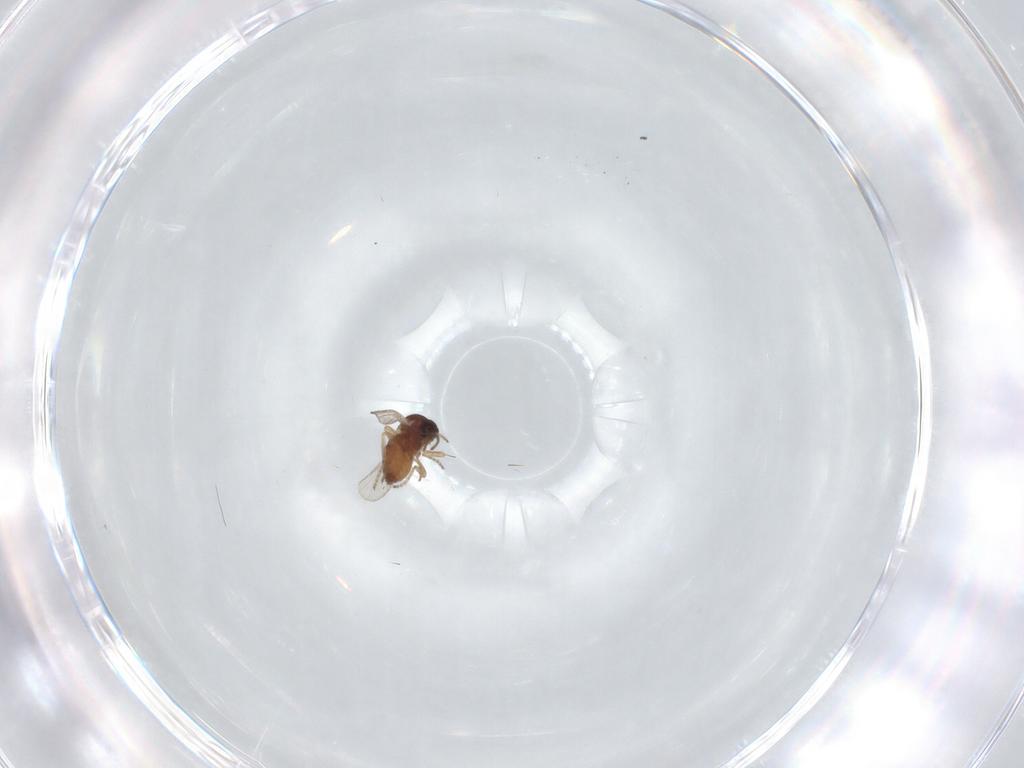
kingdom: Animalia
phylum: Arthropoda
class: Insecta
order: Diptera
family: Ceratopogonidae
